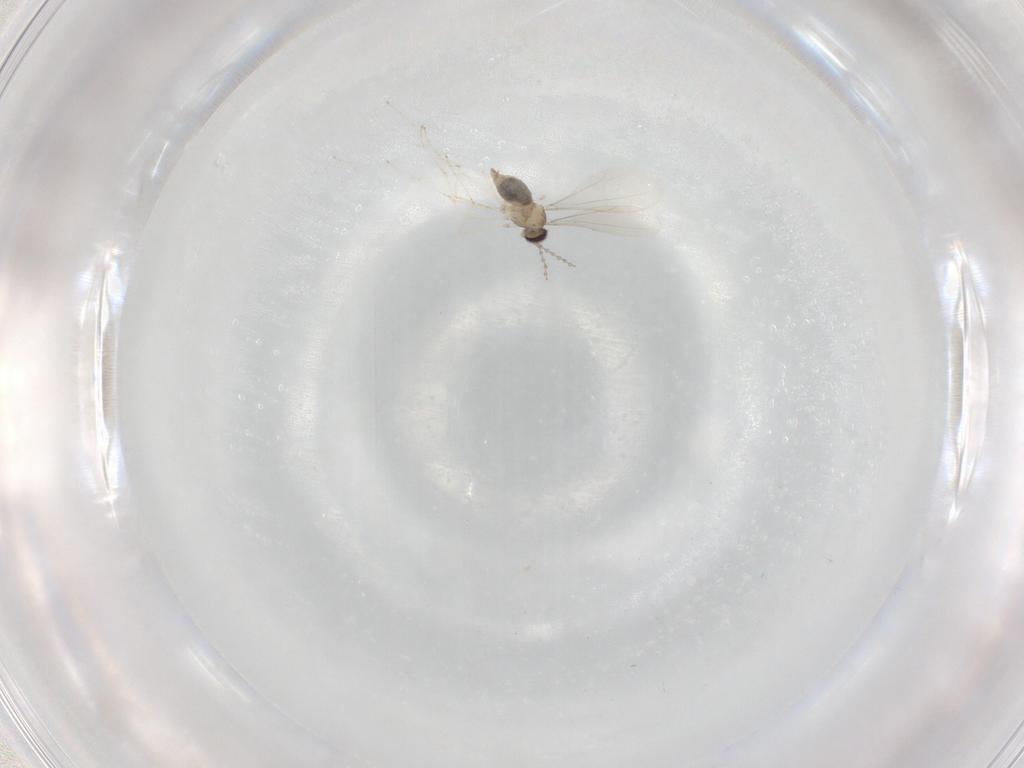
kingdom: Animalia
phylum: Arthropoda
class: Insecta
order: Diptera
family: Cecidomyiidae
